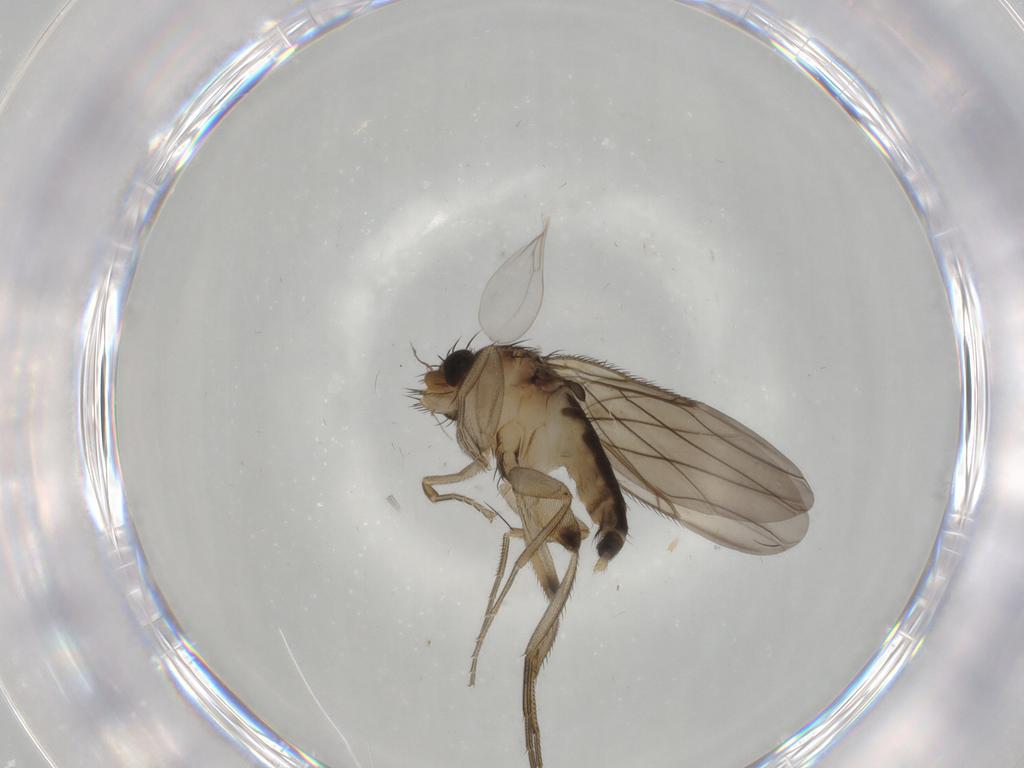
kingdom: Animalia
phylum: Arthropoda
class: Insecta
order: Diptera
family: Phoridae
